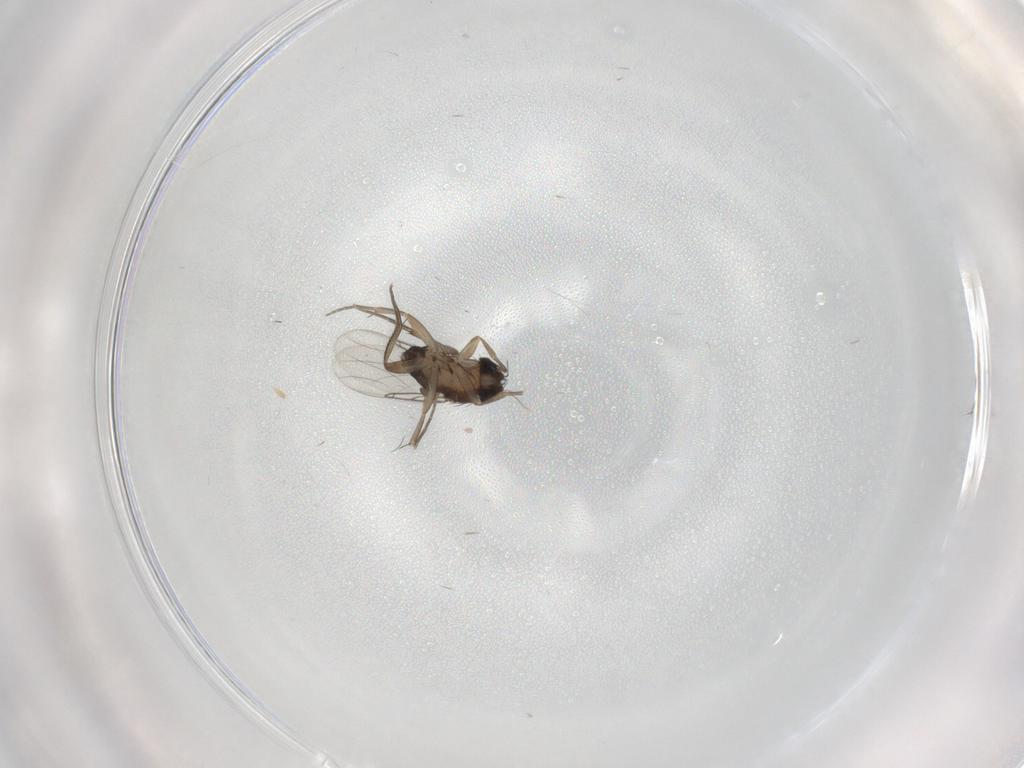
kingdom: Animalia
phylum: Arthropoda
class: Insecta
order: Diptera
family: Phoridae
